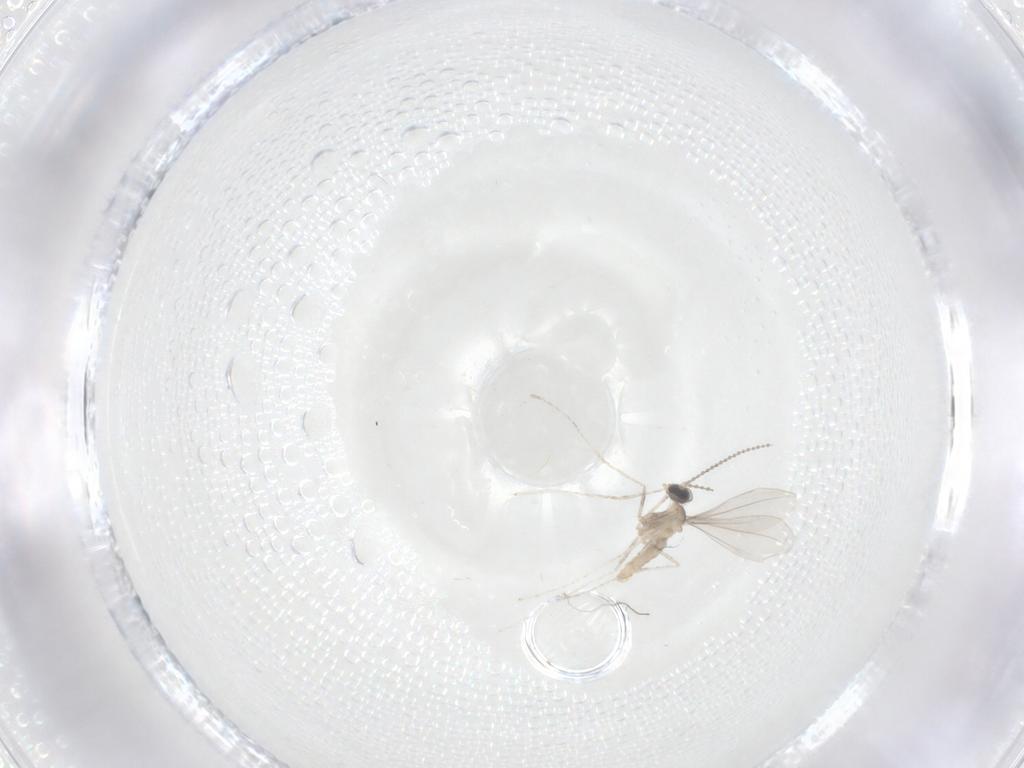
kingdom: Animalia
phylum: Arthropoda
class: Insecta
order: Diptera
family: Cecidomyiidae
